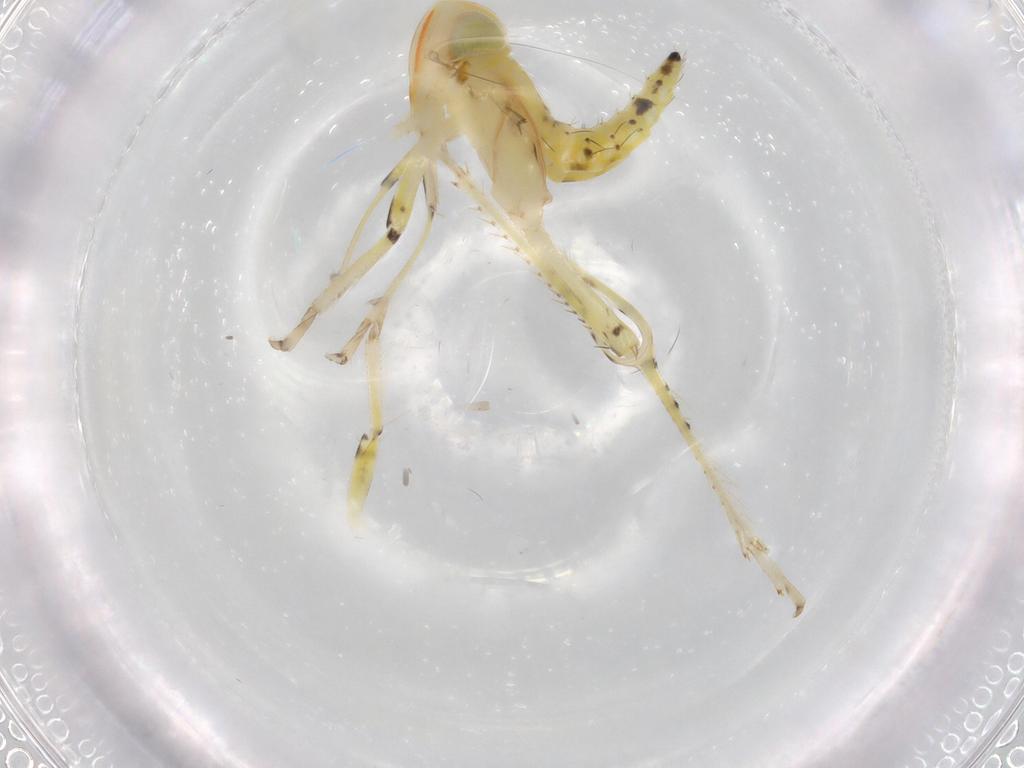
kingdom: Animalia
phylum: Arthropoda
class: Insecta
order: Hemiptera
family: Cicadellidae
